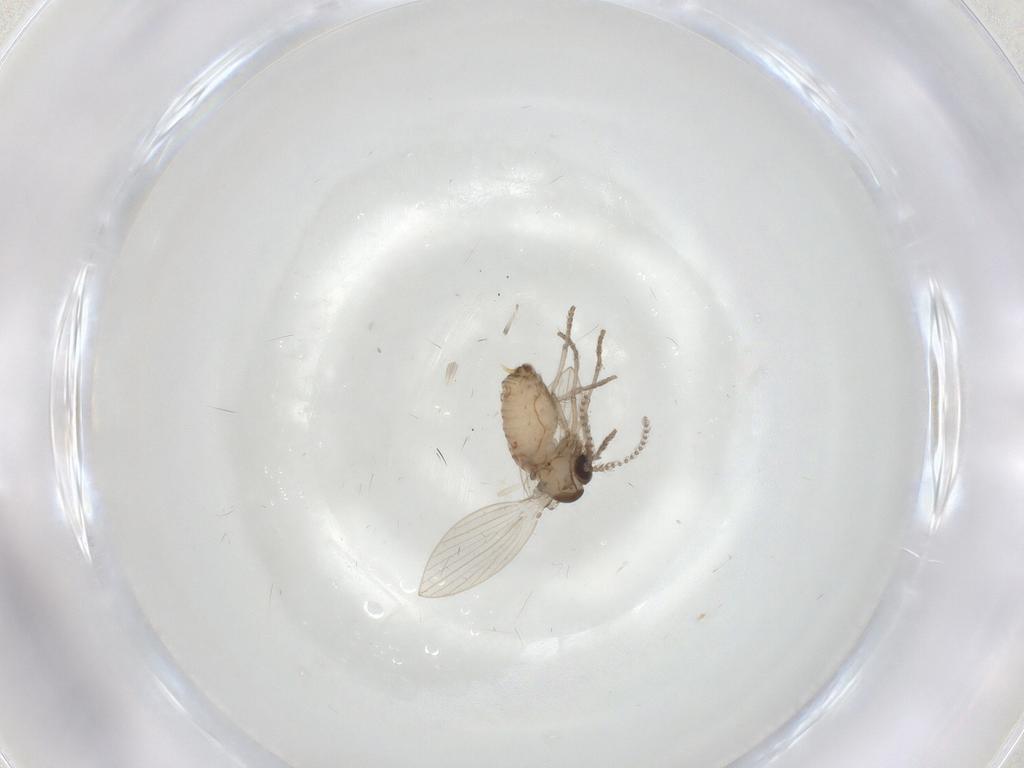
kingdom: Animalia
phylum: Arthropoda
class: Insecta
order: Diptera
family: Psychodidae
